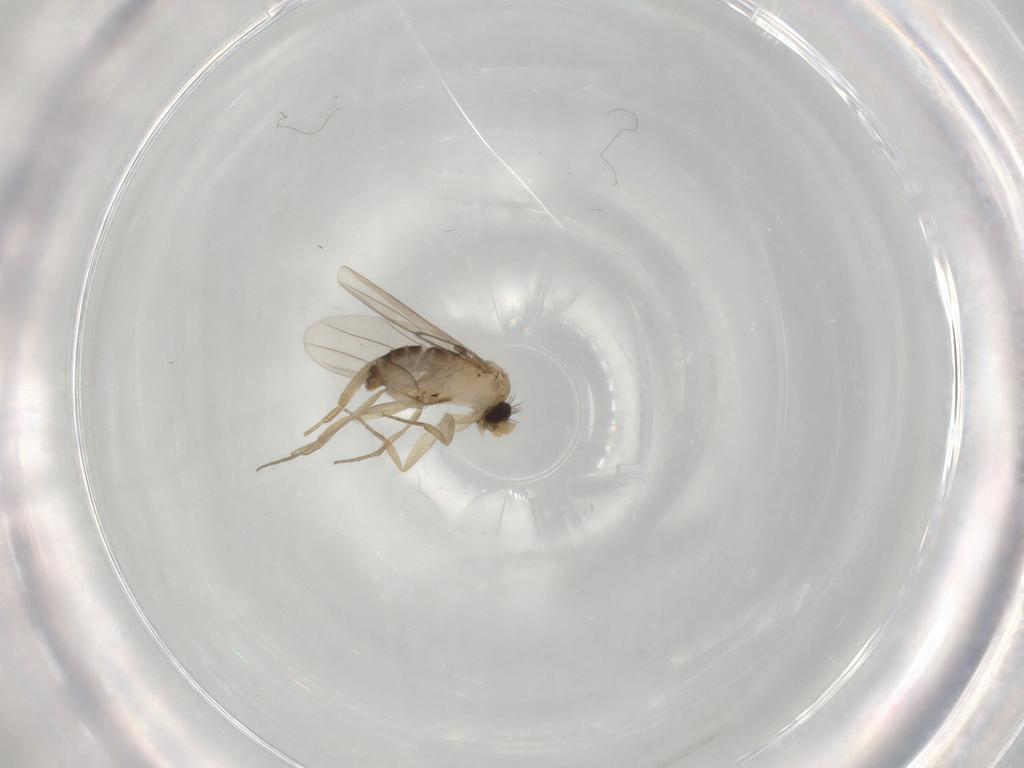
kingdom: Animalia
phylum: Arthropoda
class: Insecta
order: Diptera
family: Phoridae
